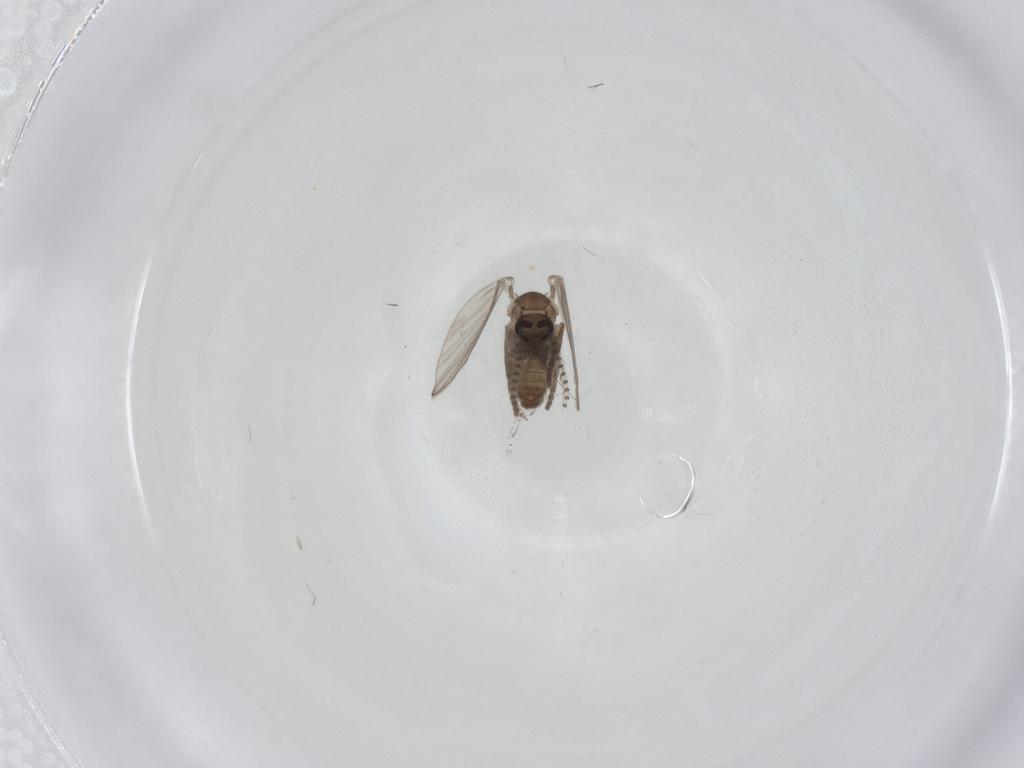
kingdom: Animalia
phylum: Arthropoda
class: Insecta
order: Diptera
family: Psychodidae
